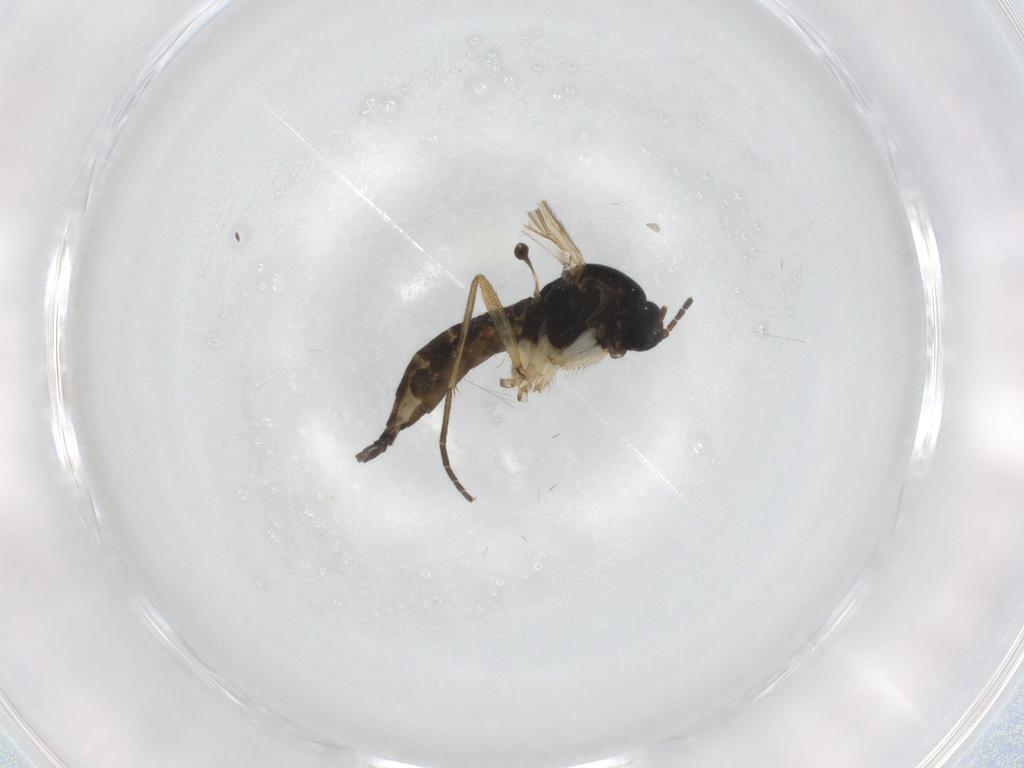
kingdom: Animalia
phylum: Arthropoda
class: Insecta
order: Diptera
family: Sciaridae
